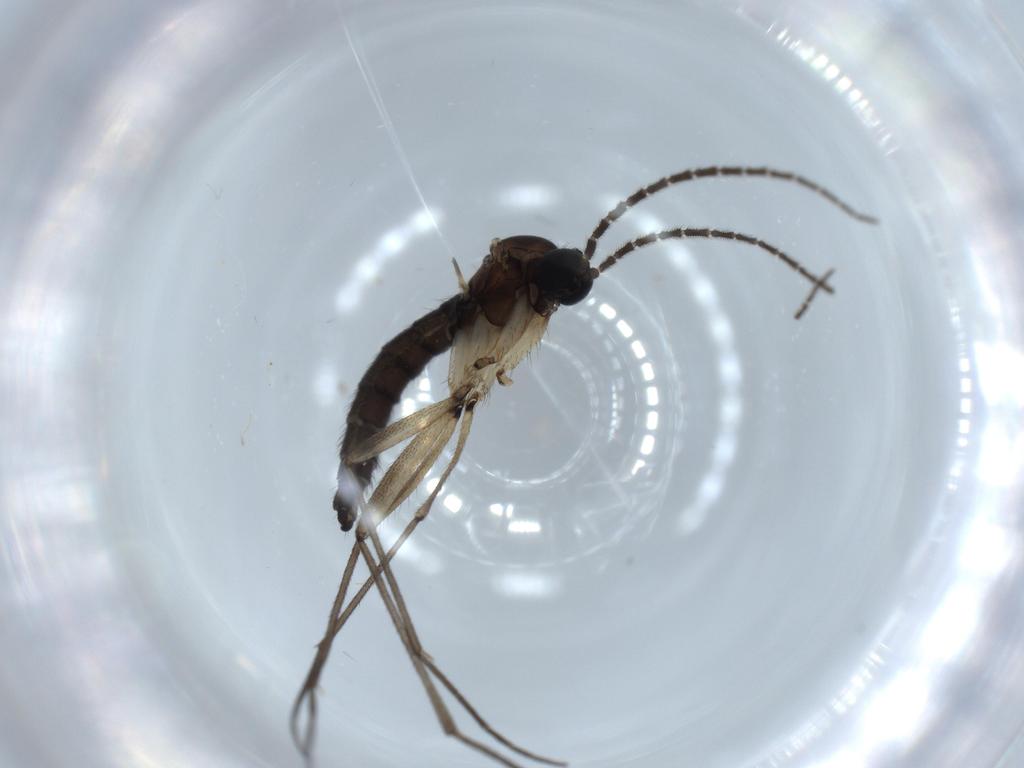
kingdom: Animalia
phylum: Arthropoda
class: Insecta
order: Diptera
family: Sciaridae
